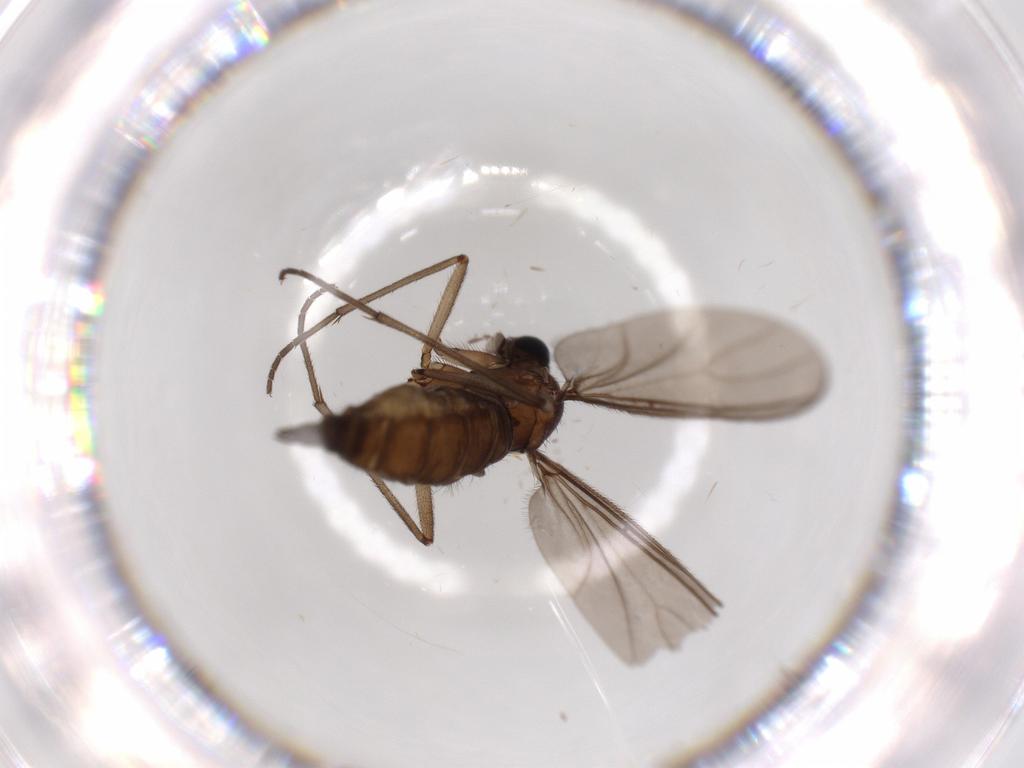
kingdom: Animalia
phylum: Arthropoda
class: Insecta
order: Diptera
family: Sciaridae
